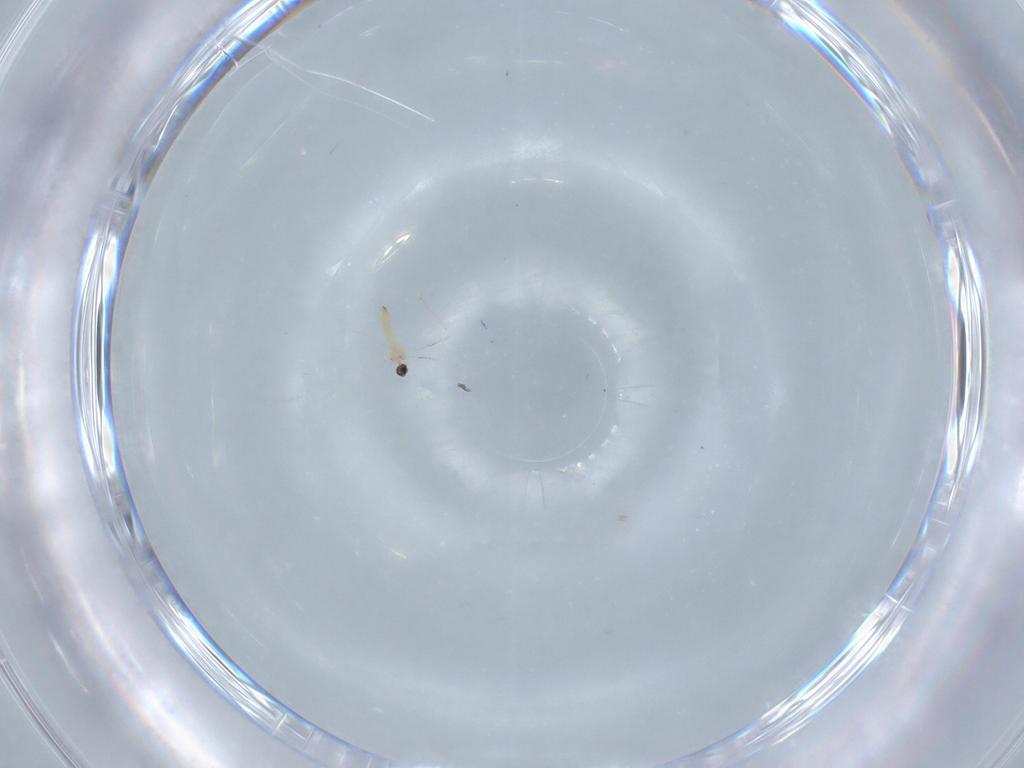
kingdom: Animalia
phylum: Arthropoda
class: Insecta
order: Diptera
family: Cecidomyiidae
